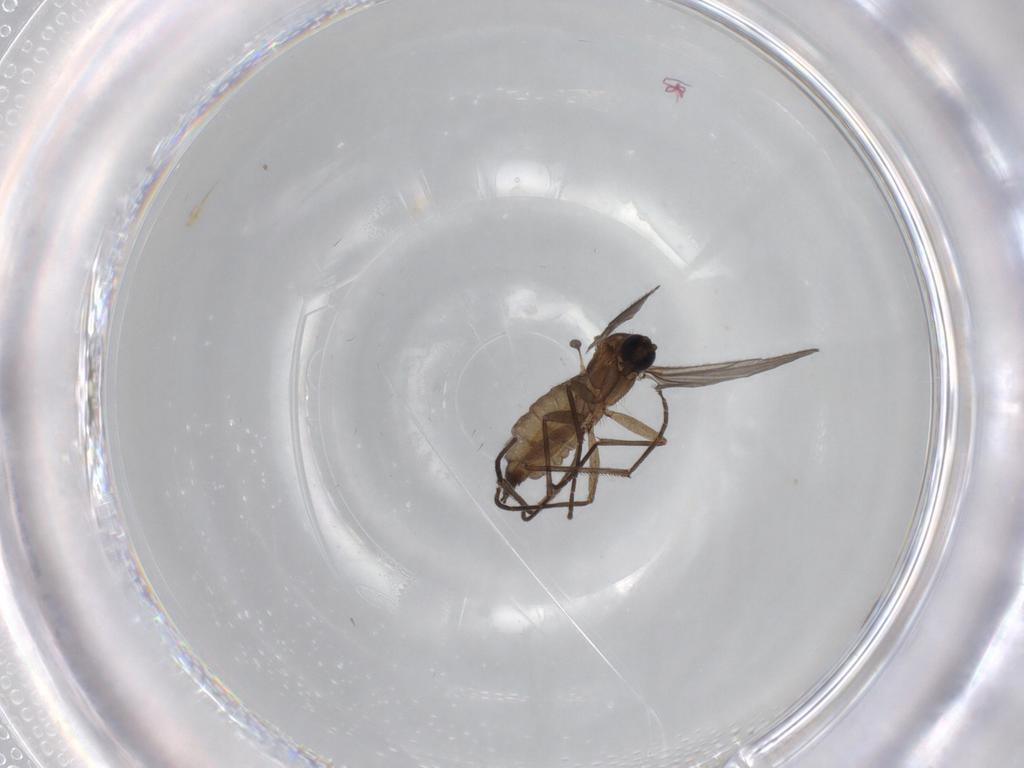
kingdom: Animalia
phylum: Arthropoda
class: Insecta
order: Diptera
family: Sciaridae
